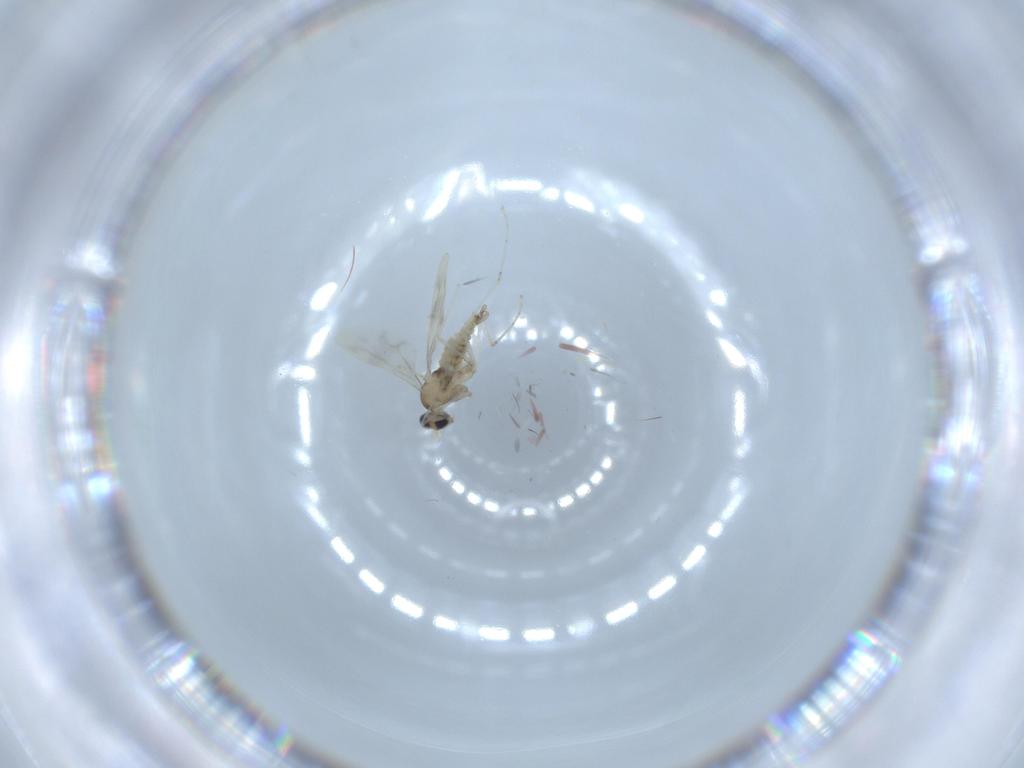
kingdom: Animalia
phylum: Arthropoda
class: Insecta
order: Diptera
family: Cecidomyiidae
